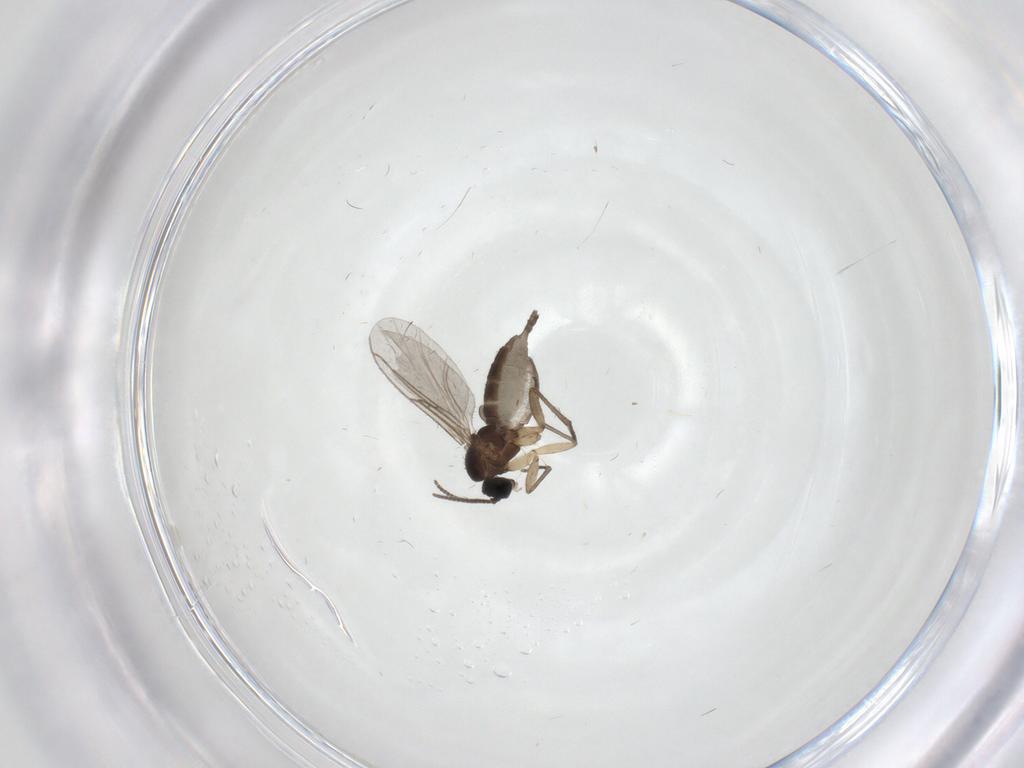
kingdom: Animalia
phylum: Arthropoda
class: Insecta
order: Diptera
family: Sciaridae
